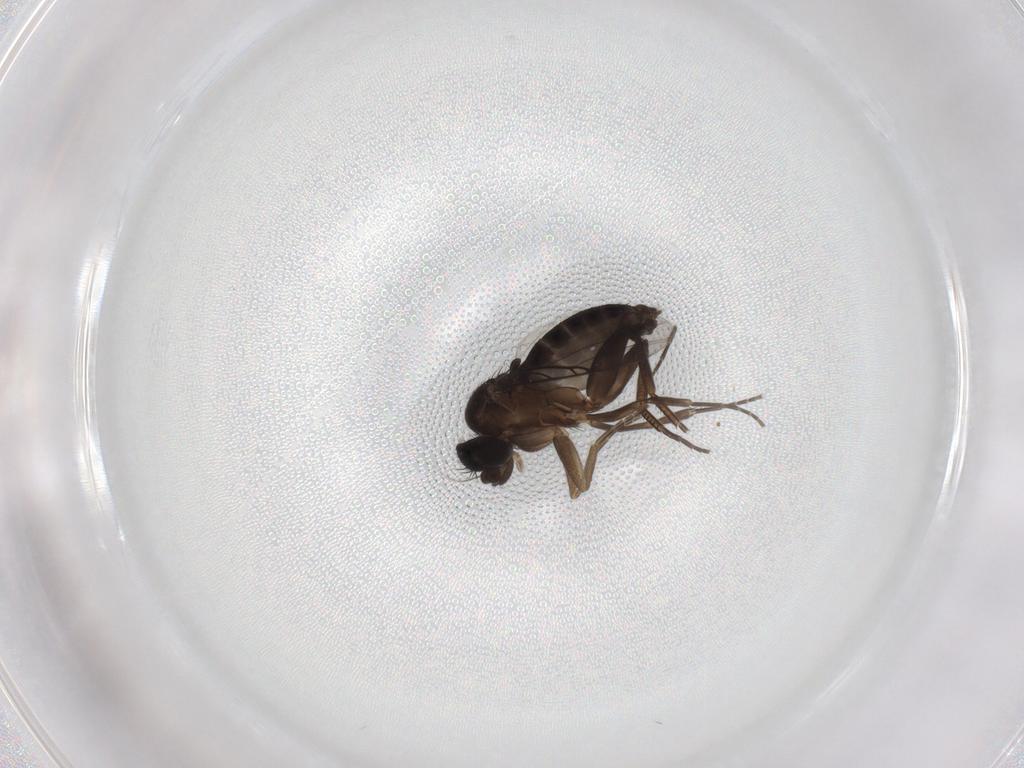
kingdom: Animalia
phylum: Arthropoda
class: Insecta
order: Diptera
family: Phoridae
